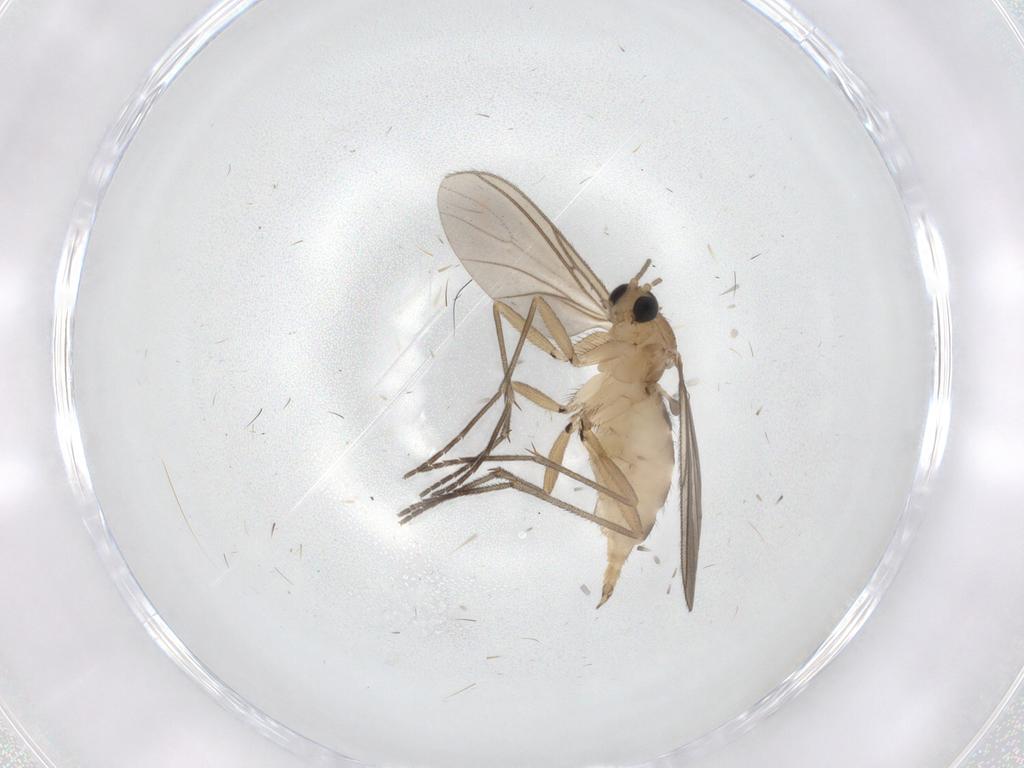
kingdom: Animalia
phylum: Arthropoda
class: Insecta
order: Diptera
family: Sciaridae
